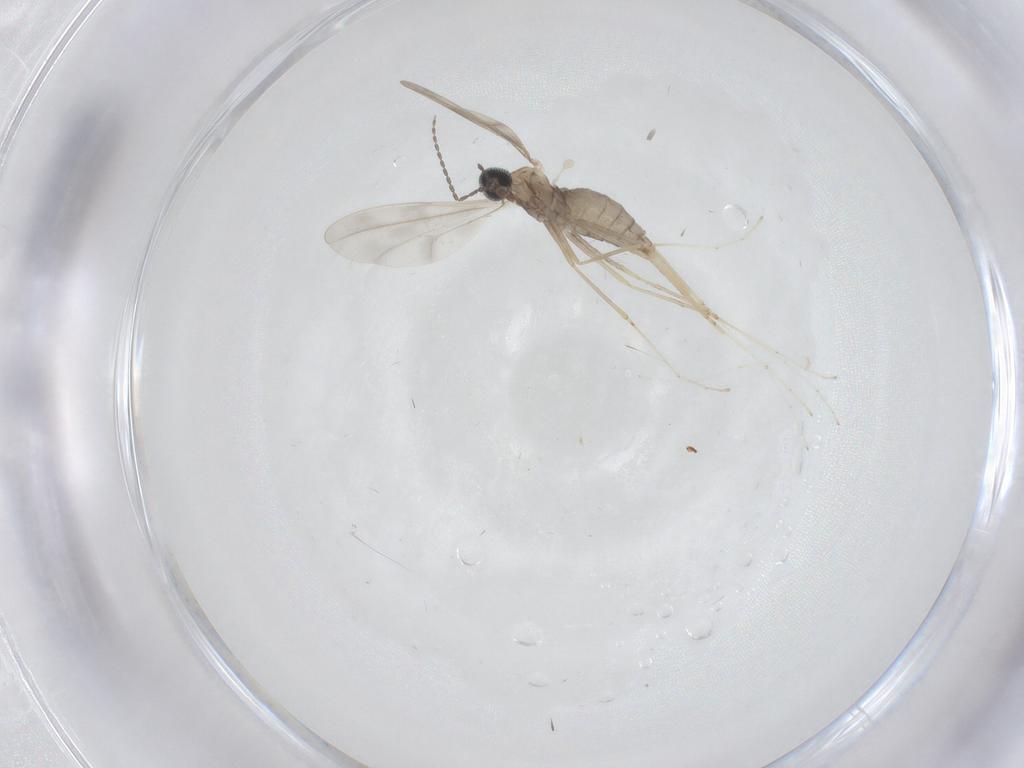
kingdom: Animalia
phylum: Arthropoda
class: Insecta
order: Diptera
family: Cecidomyiidae
